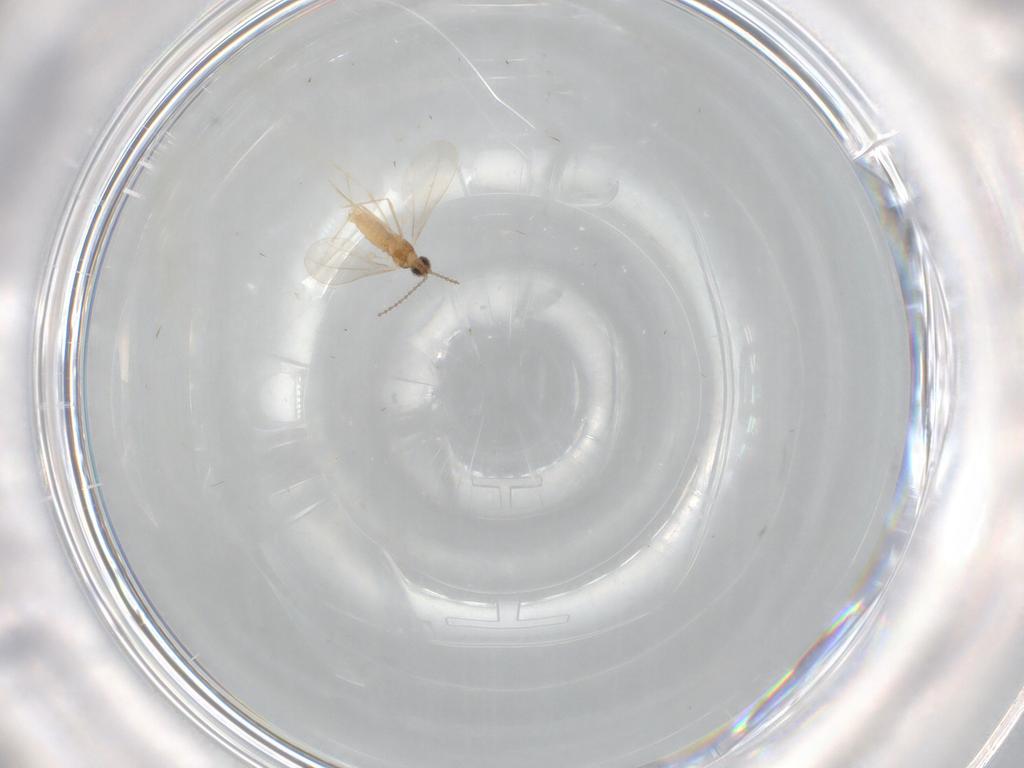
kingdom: Animalia
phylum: Arthropoda
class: Insecta
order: Diptera
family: Cecidomyiidae
